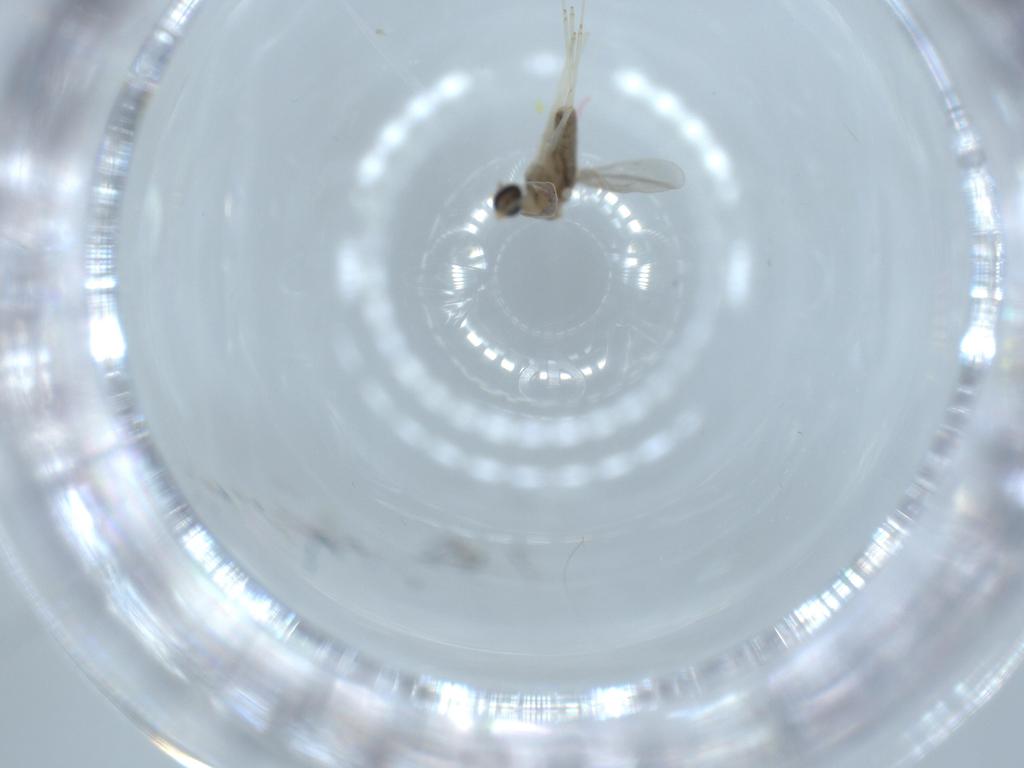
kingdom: Animalia
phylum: Arthropoda
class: Insecta
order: Diptera
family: Cecidomyiidae
